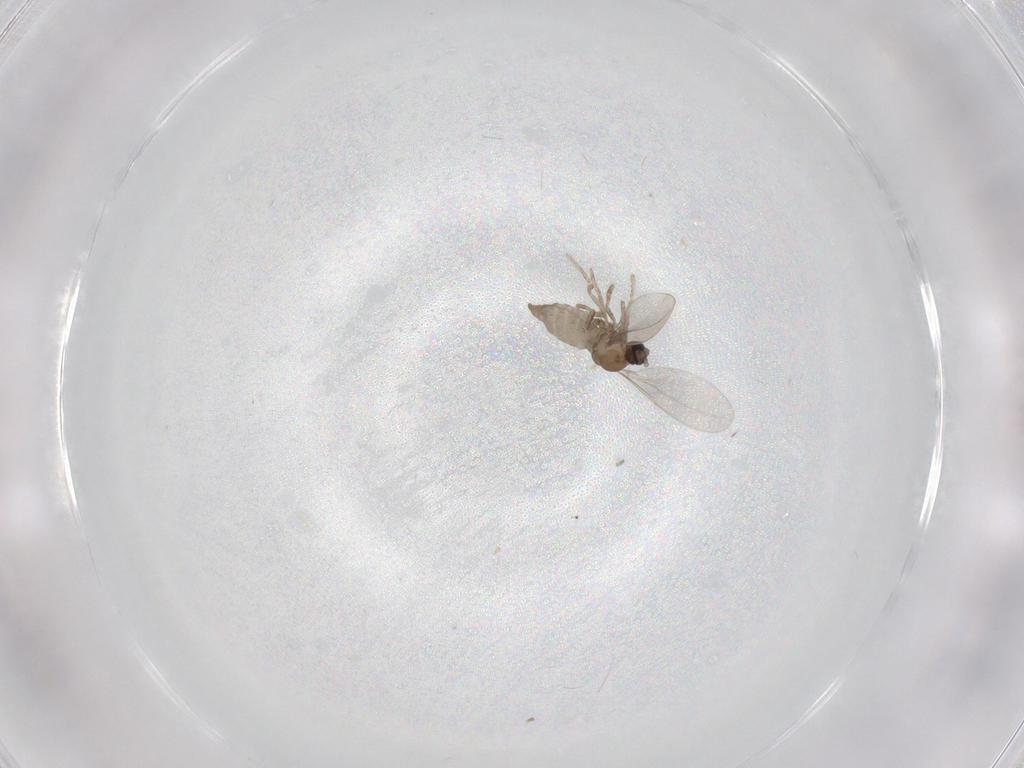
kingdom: Animalia
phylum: Arthropoda
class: Insecta
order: Diptera
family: Cecidomyiidae
